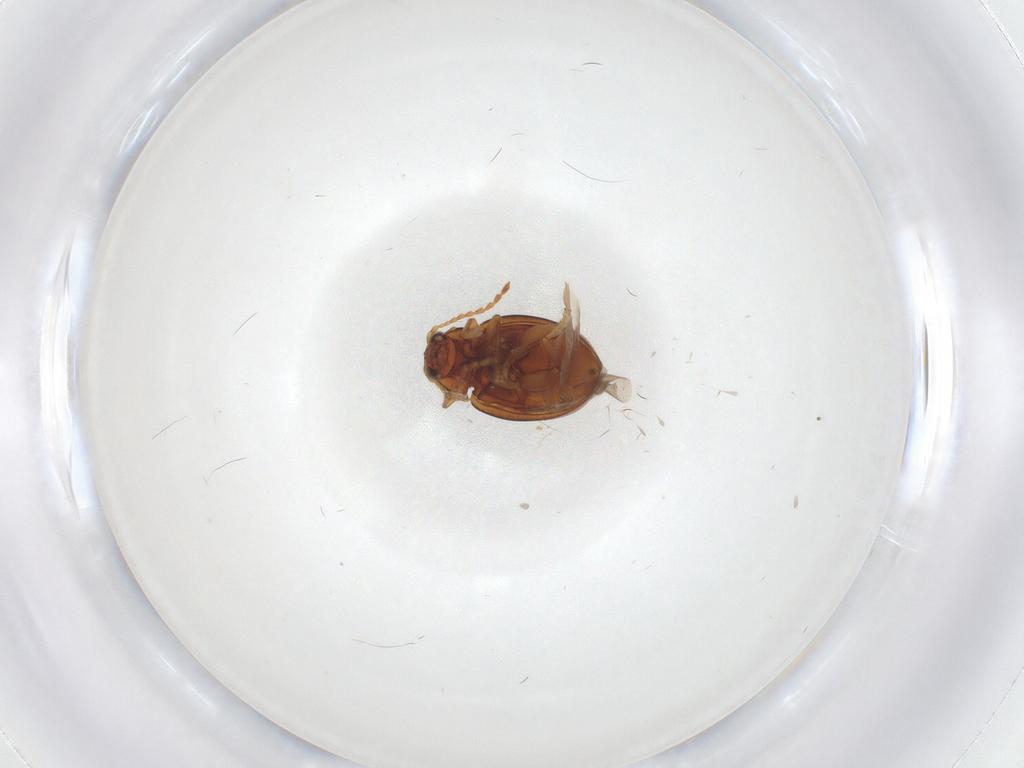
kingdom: Animalia
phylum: Arthropoda
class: Insecta
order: Coleoptera
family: Chrysomelidae
